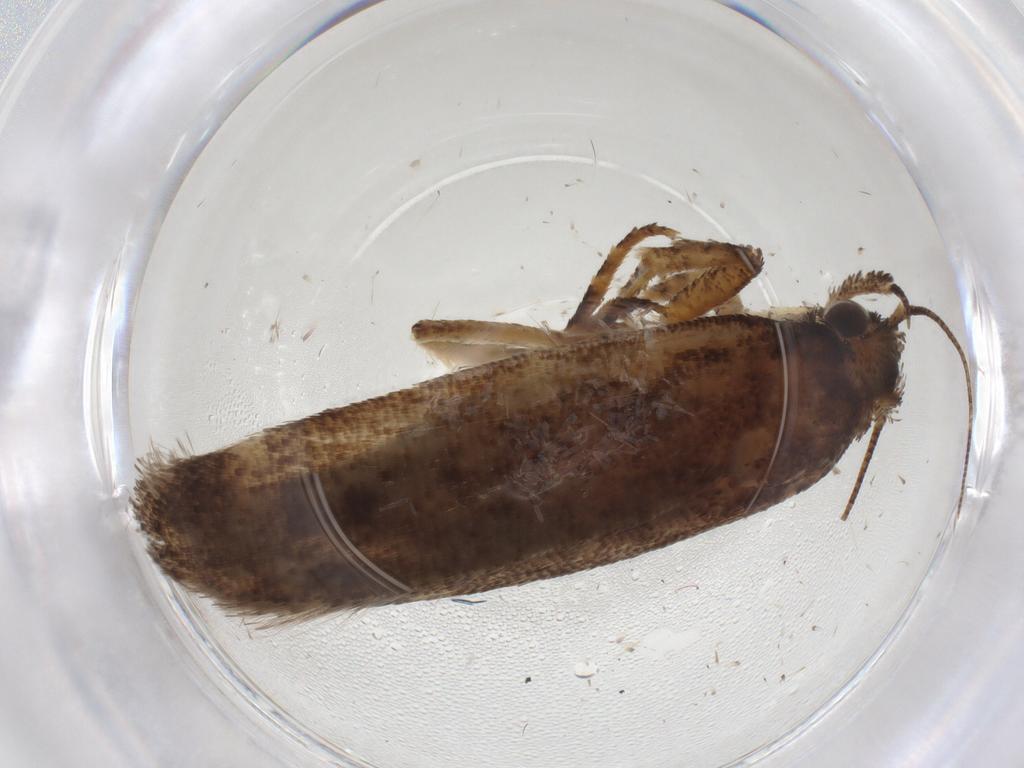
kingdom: Animalia
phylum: Arthropoda
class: Insecta
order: Lepidoptera
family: Gelechiidae
